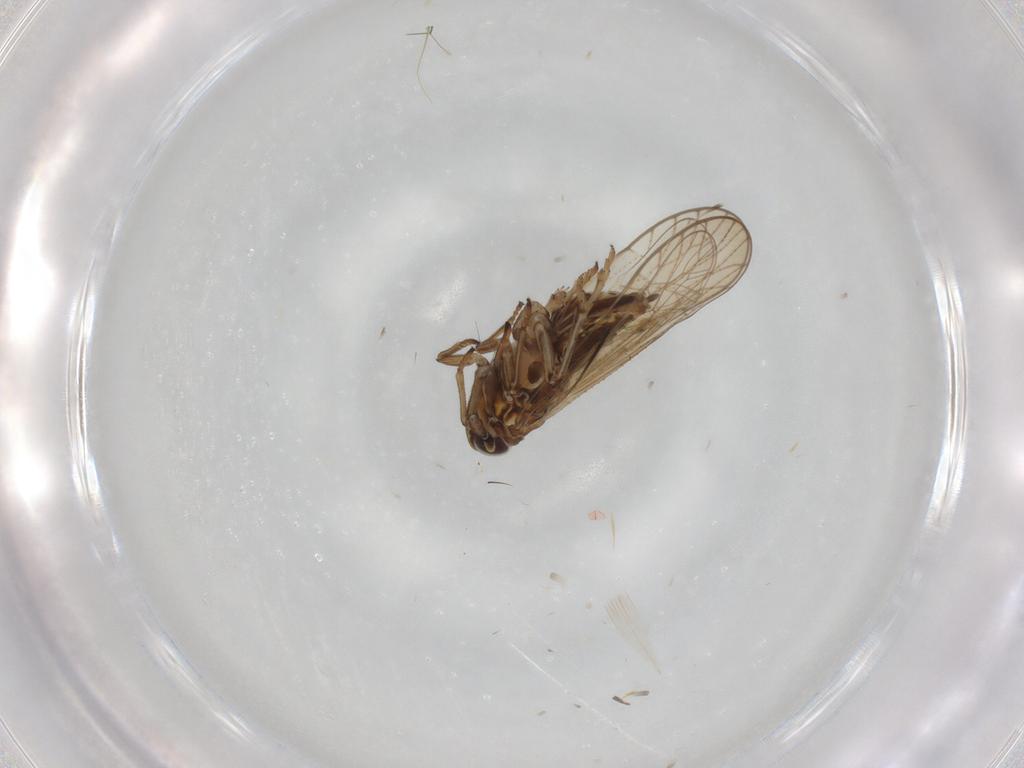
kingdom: Animalia
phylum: Arthropoda
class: Insecta
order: Hemiptera
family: Delphacidae
